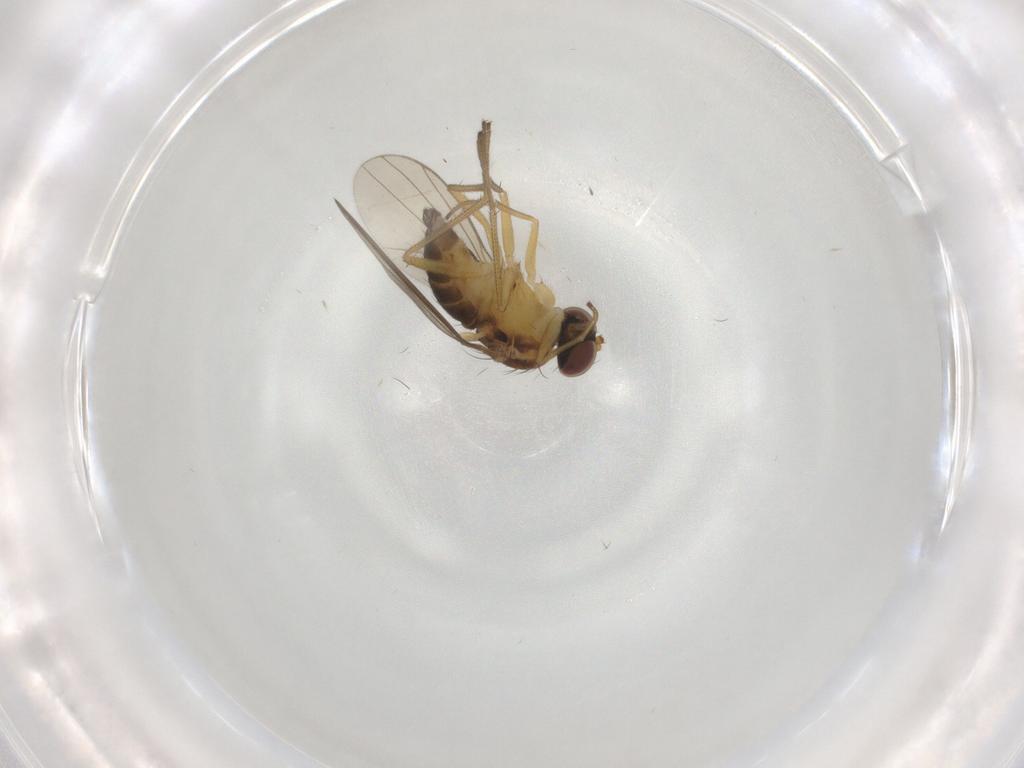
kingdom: Animalia
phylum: Arthropoda
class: Insecta
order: Diptera
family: Dolichopodidae
